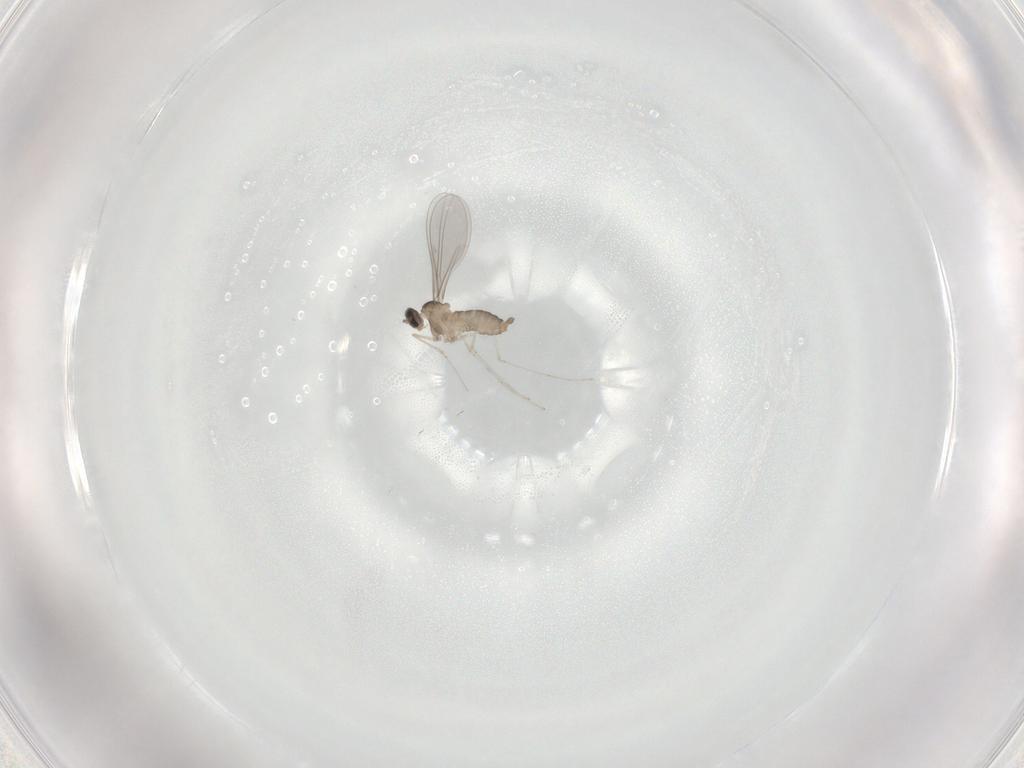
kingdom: Animalia
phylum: Arthropoda
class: Insecta
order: Diptera
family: Cecidomyiidae
